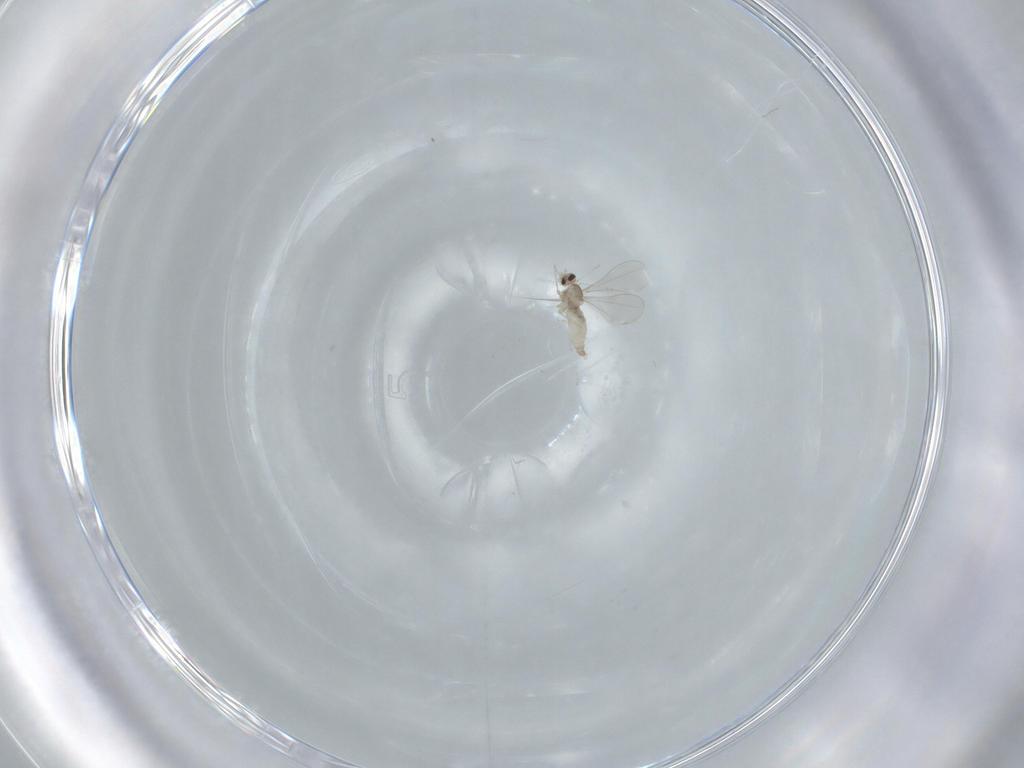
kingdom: Animalia
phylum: Arthropoda
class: Insecta
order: Diptera
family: Cecidomyiidae
